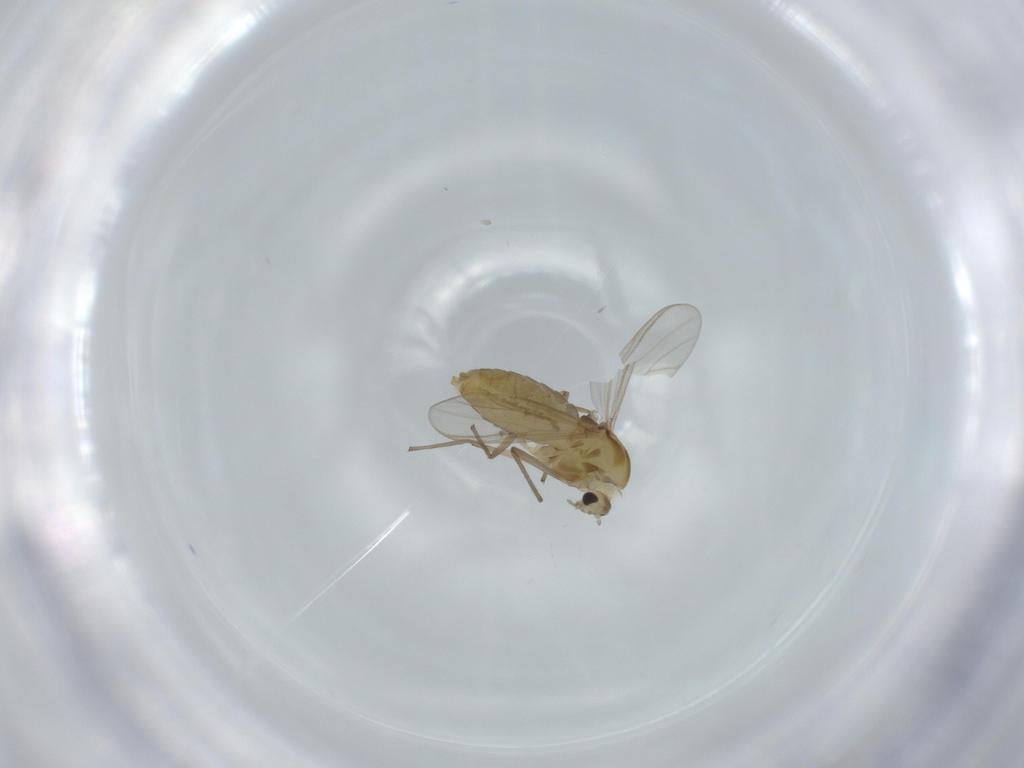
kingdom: Animalia
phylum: Arthropoda
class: Insecta
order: Diptera
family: Chironomidae
